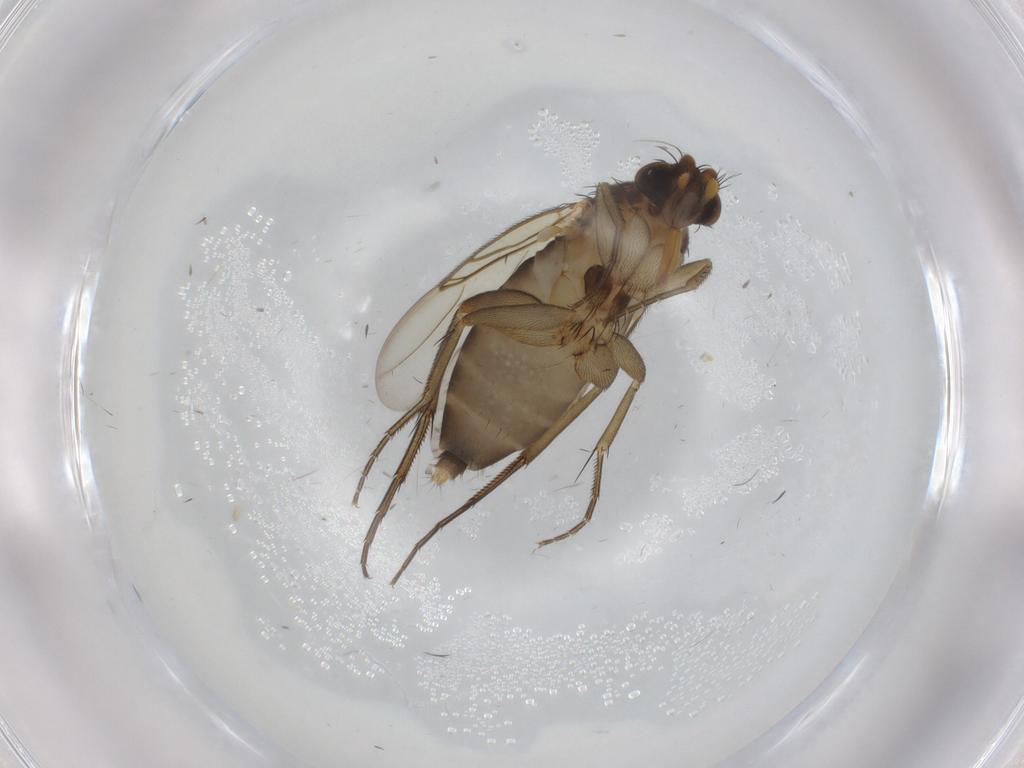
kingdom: Animalia
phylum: Arthropoda
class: Insecta
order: Diptera
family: Phoridae
